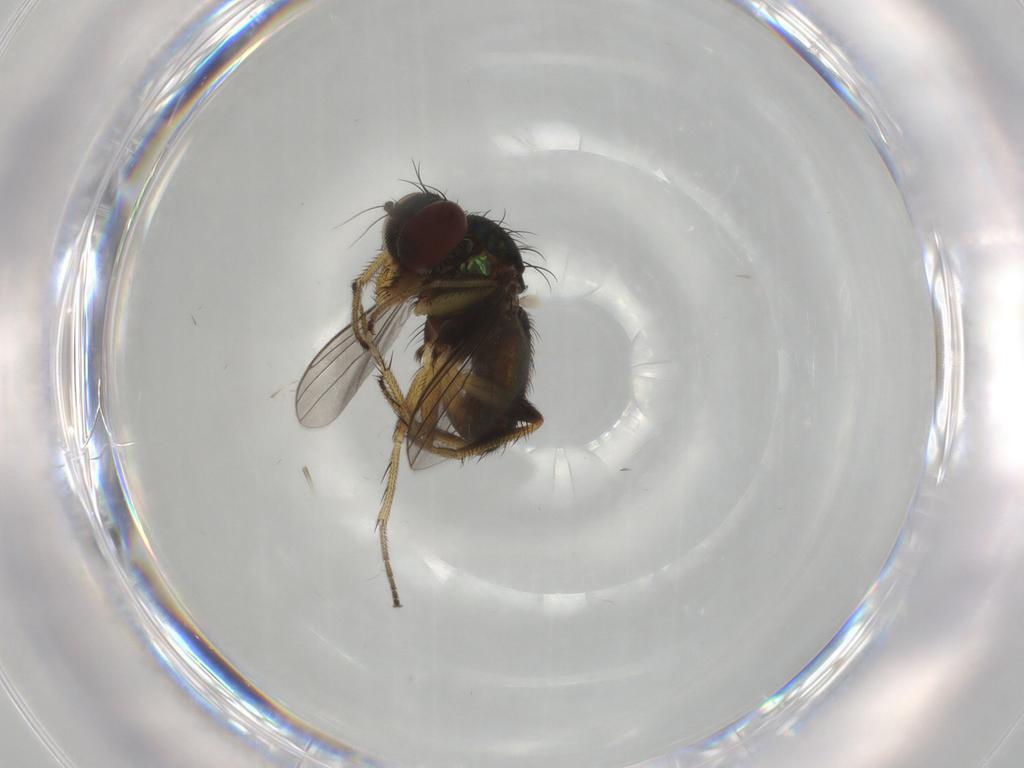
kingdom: Animalia
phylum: Arthropoda
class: Insecta
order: Diptera
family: Dolichopodidae
